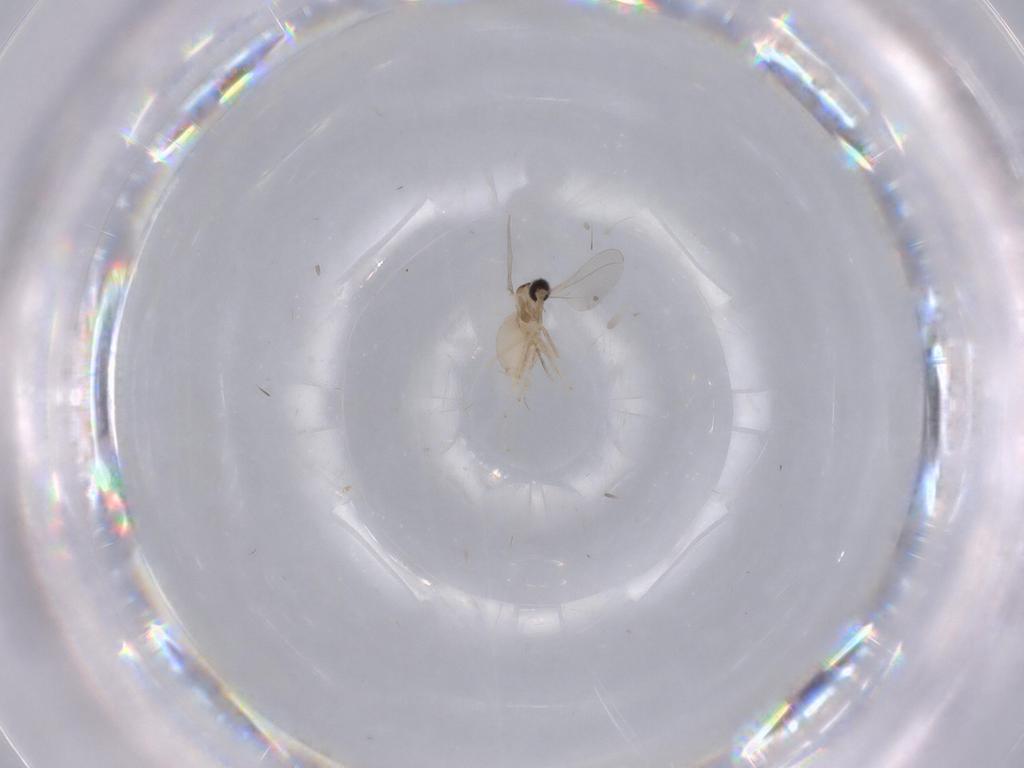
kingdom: Animalia
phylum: Arthropoda
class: Insecta
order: Diptera
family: Cecidomyiidae
